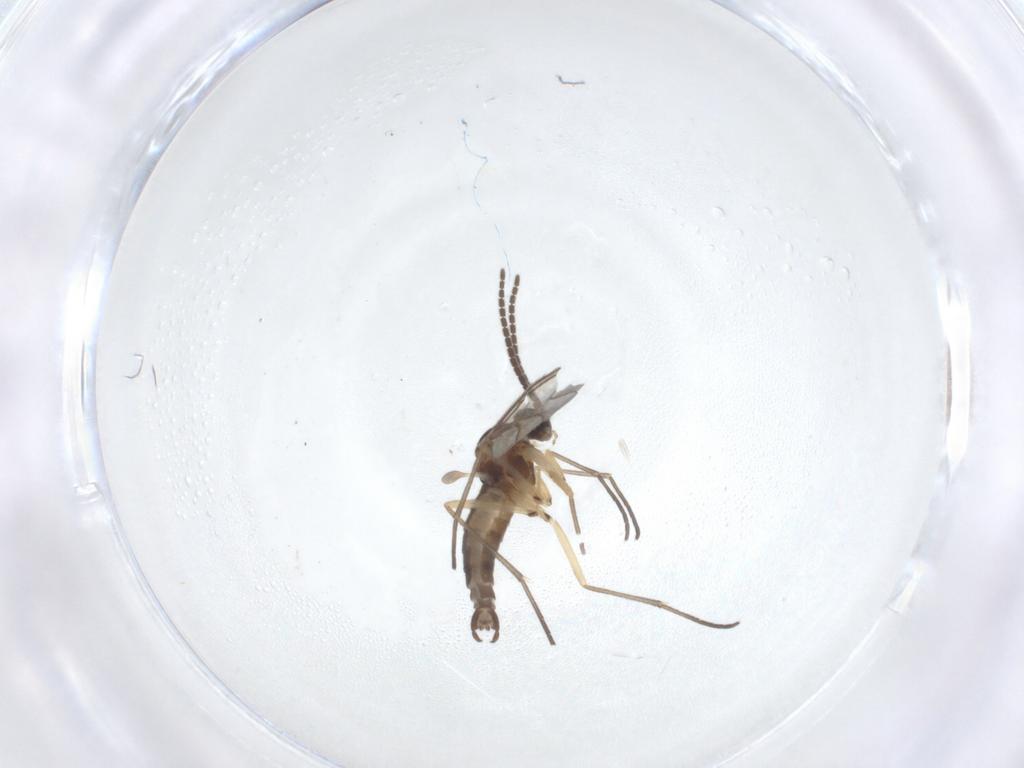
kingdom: Animalia
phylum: Arthropoda
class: Insecta
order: Diptera
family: Sciaridae
